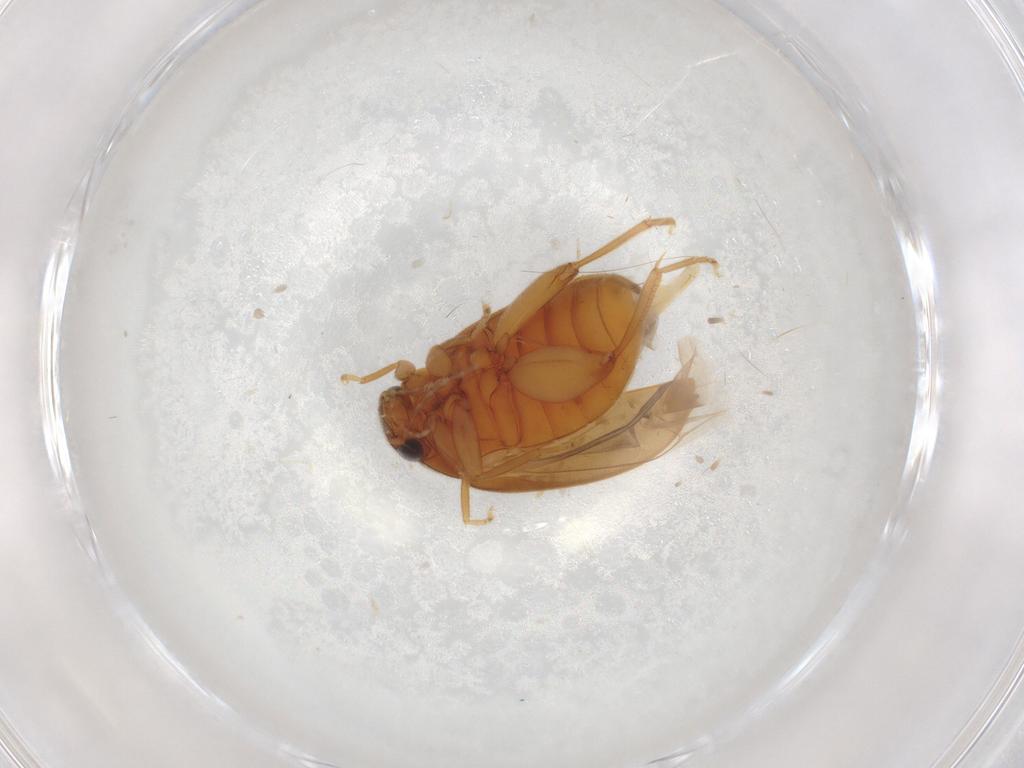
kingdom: Animalia
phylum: Arthropoda
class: Insecta
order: Coleoptera
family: Scirtidae
